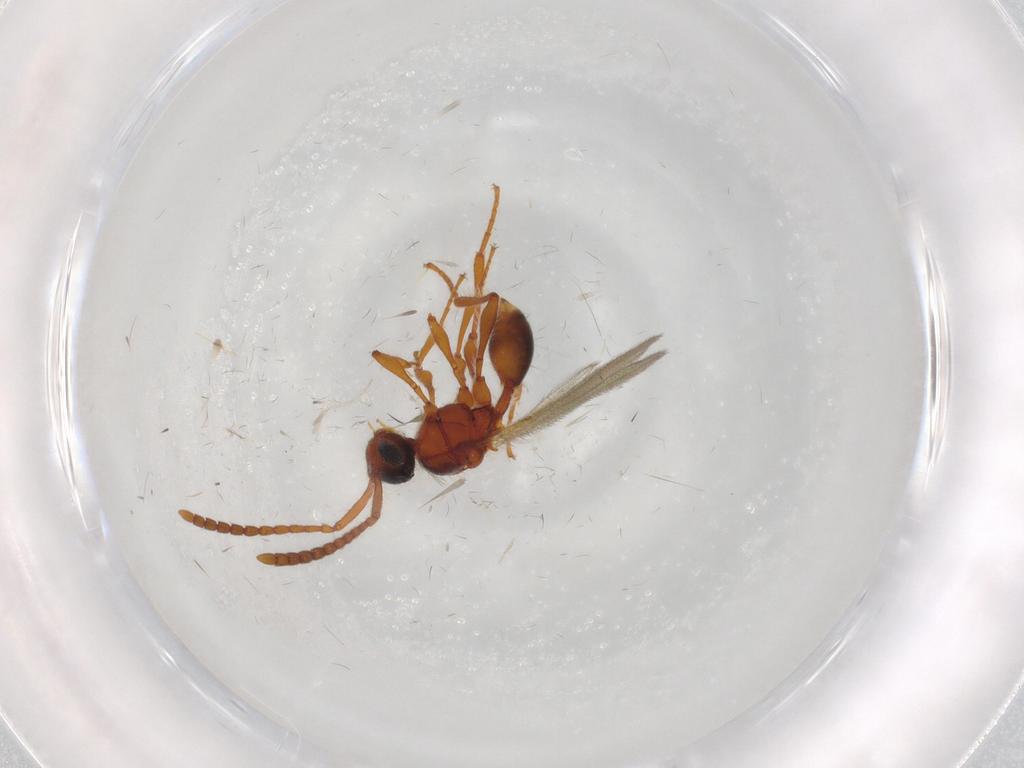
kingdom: Animalia
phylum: Arthropoda
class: Insecta
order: Hymenoptera
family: Diapriidae
